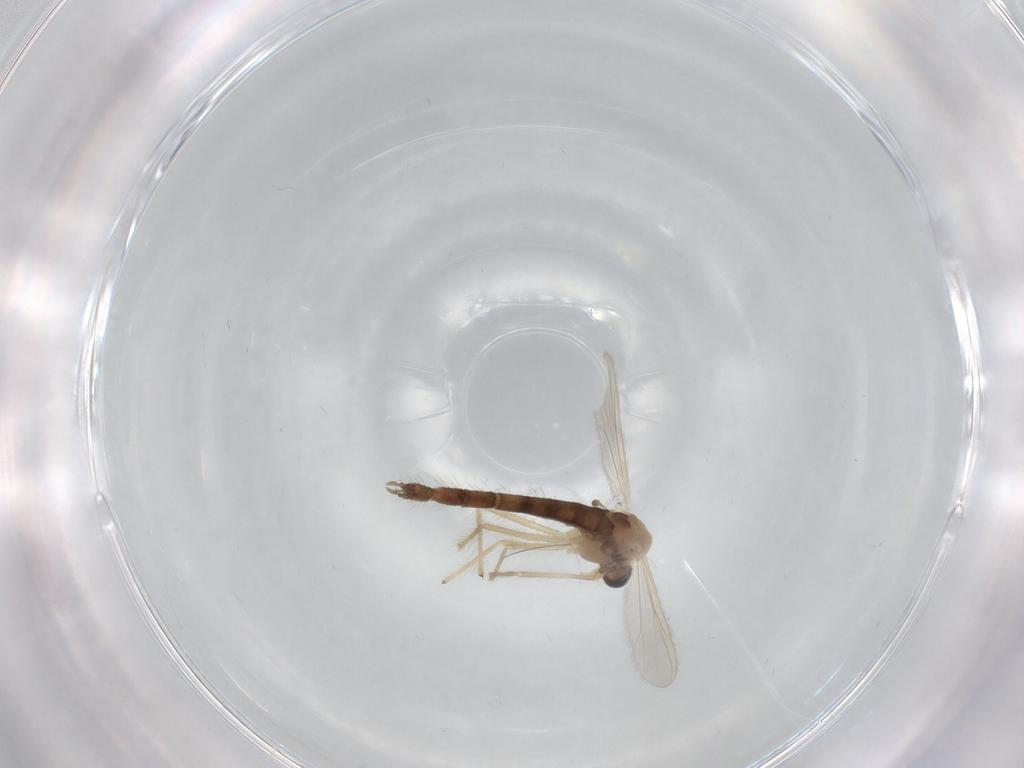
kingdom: Animalia
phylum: Arthropoda
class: Insecta
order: Diptera
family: Chironomidae
